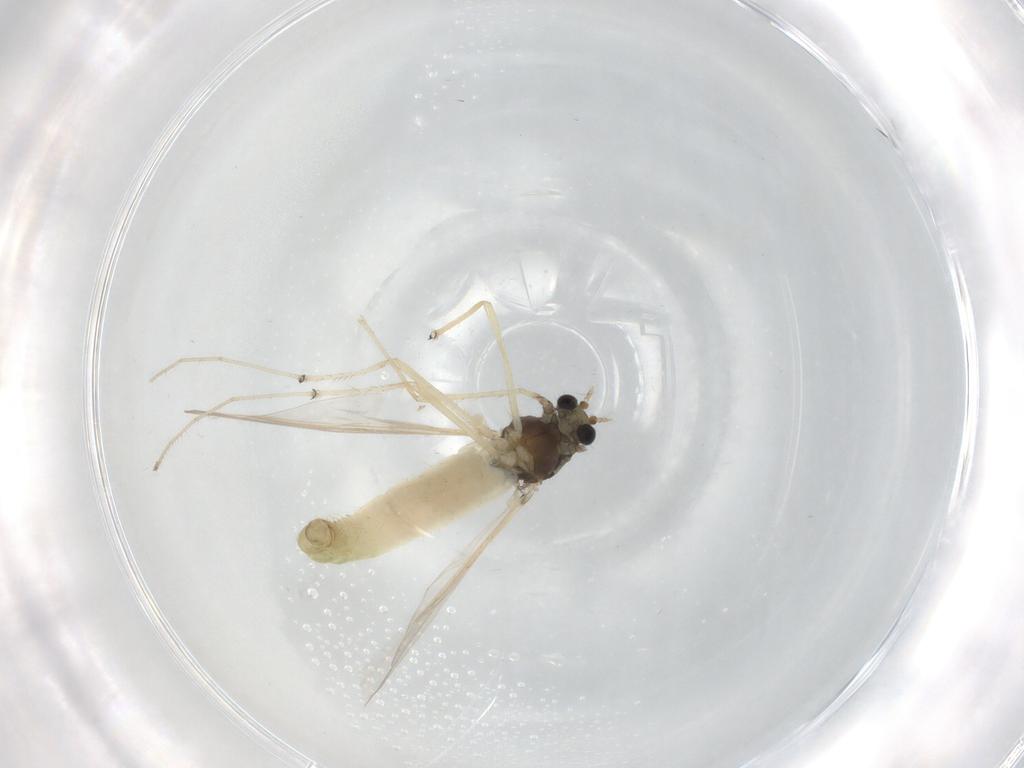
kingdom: Animalia
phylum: Arthropoda
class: Insecta
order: Diptera
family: Chironomidae
